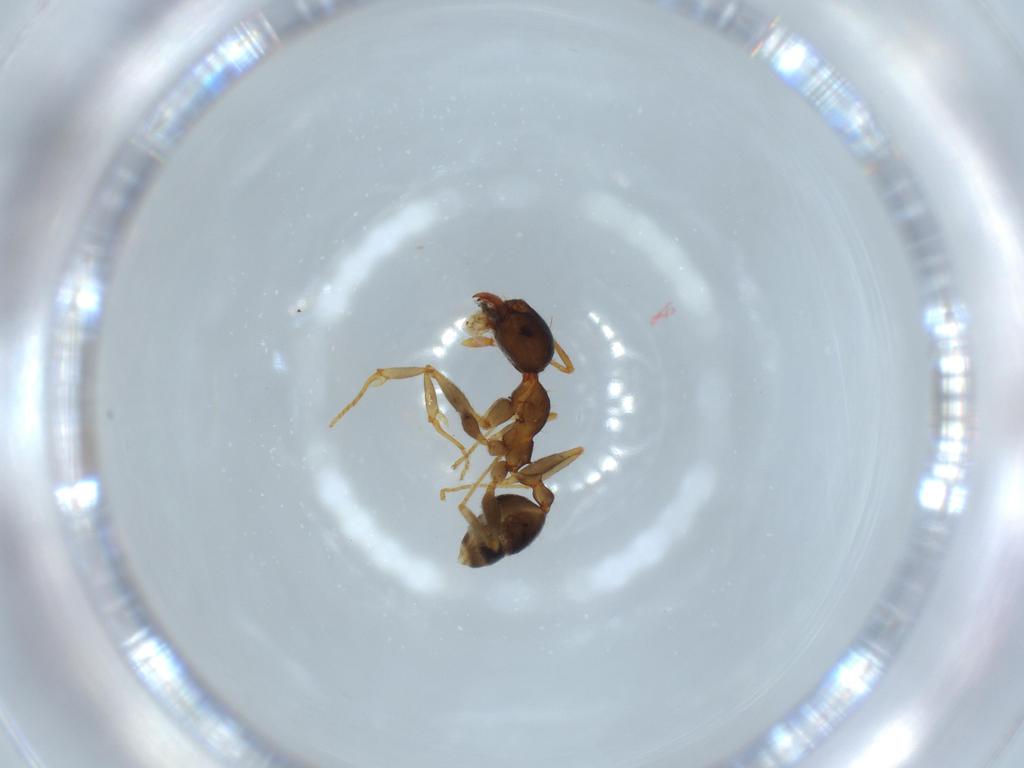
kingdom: Animalia
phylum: Arthropoda
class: Insecta
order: Hymenoptera
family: Formicidae
